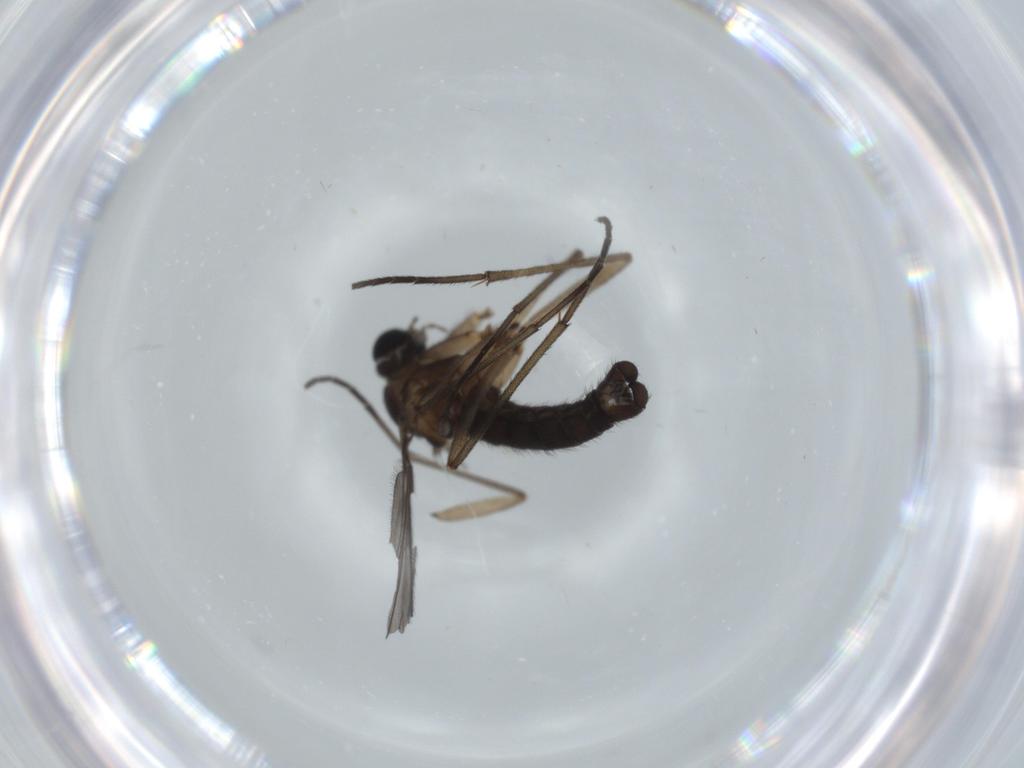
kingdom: Animalia
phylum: Arthropoda
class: Insecta
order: Diptera
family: Sciaridae
